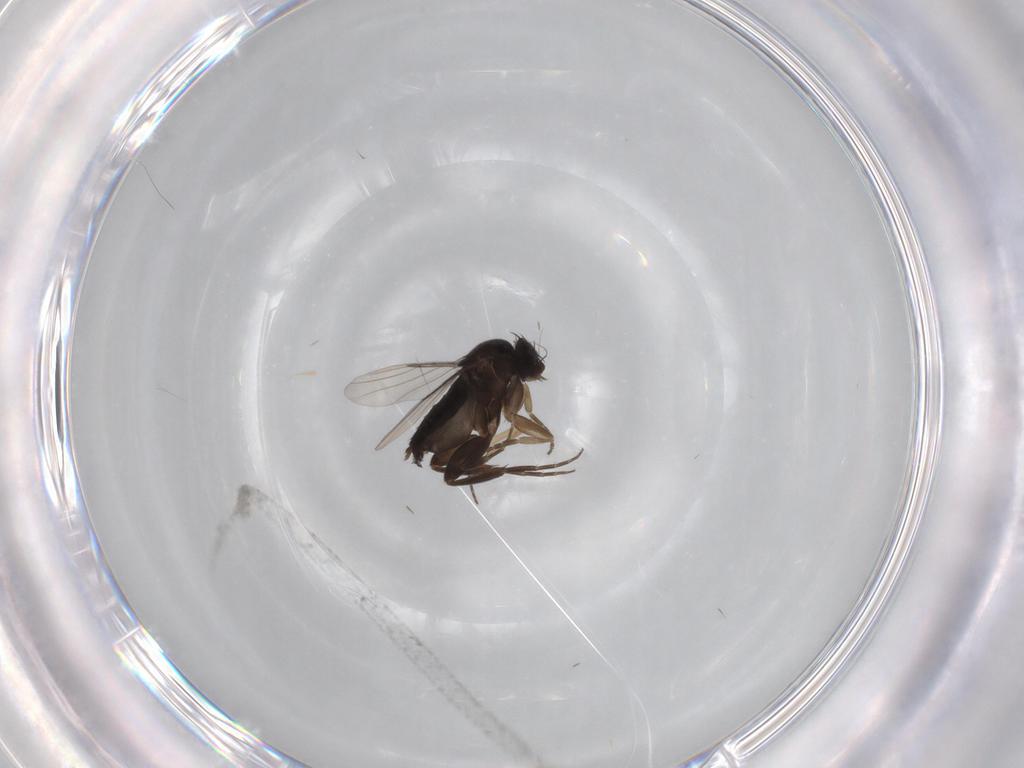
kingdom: Animalia
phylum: Arthropoda
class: Insecta
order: Diptera
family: Phoridae
